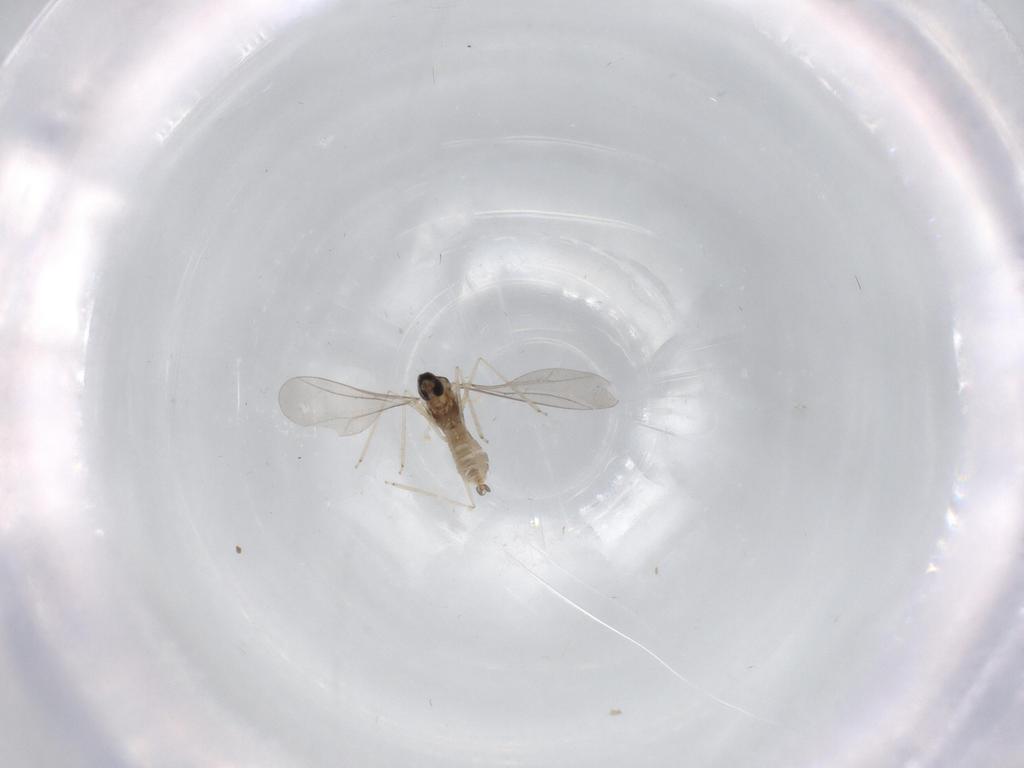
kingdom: Animalia
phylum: Arthropoda
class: Insecta
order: Diptera
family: Cecidomyiidae
